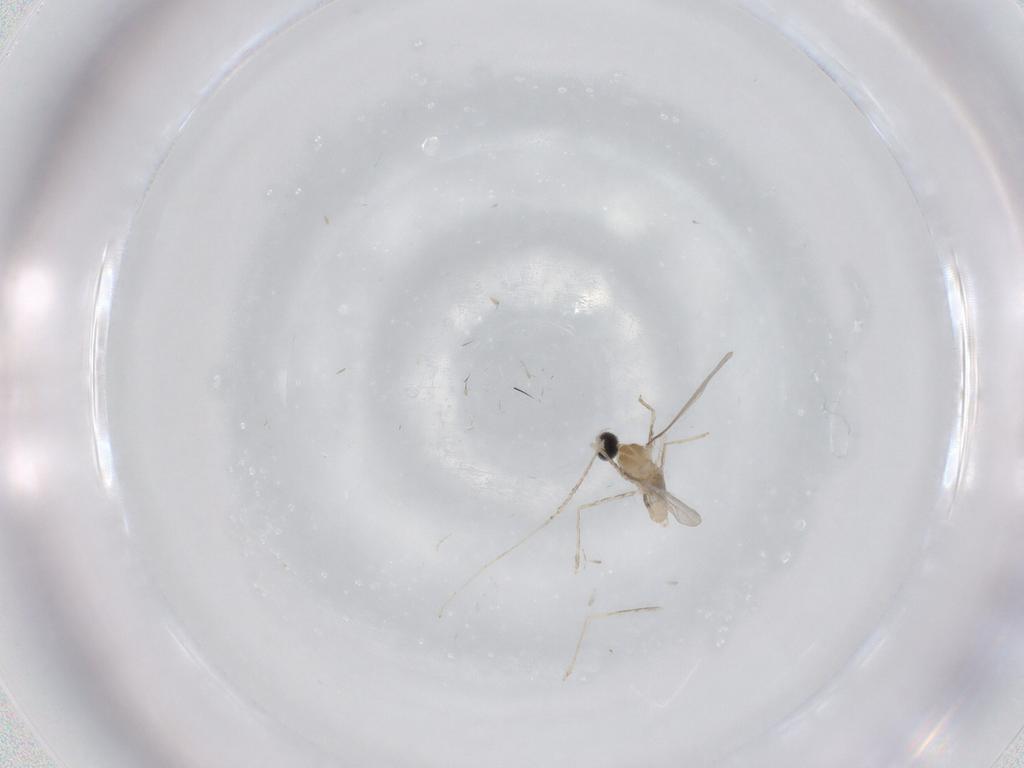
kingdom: Animalia
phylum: Arthropoda
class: Insecta
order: Diptera
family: Cecidomyiidae
